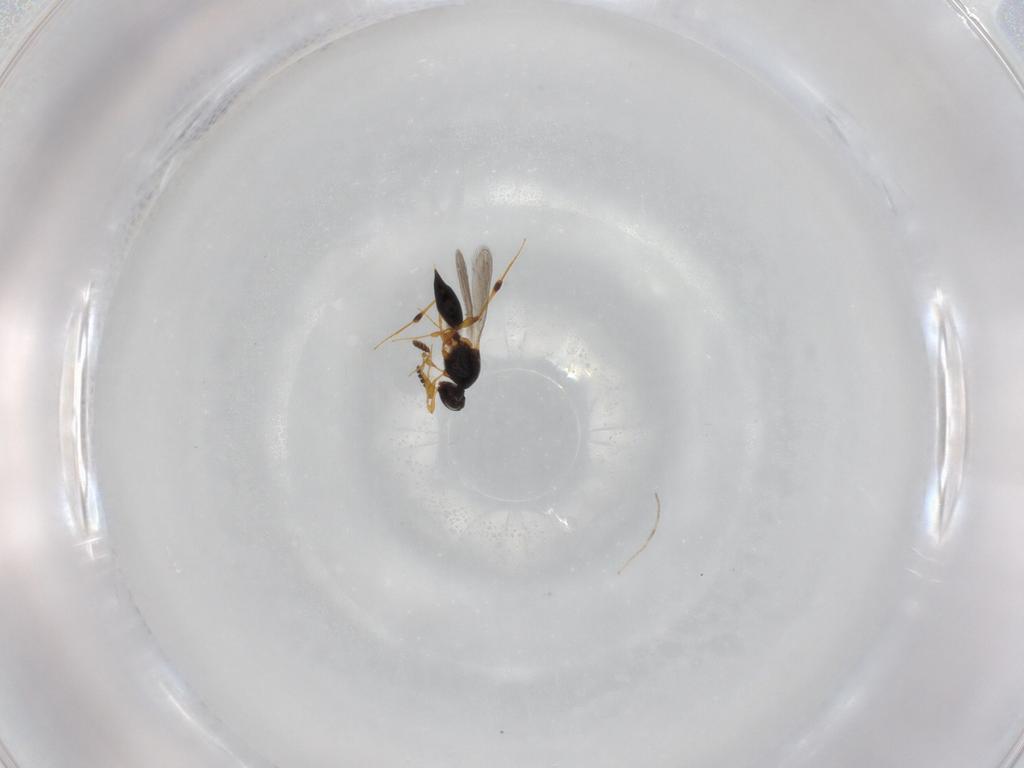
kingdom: Animalia
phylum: Arthropoda
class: Insecta
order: Hymenoptera
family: Platygastridae
